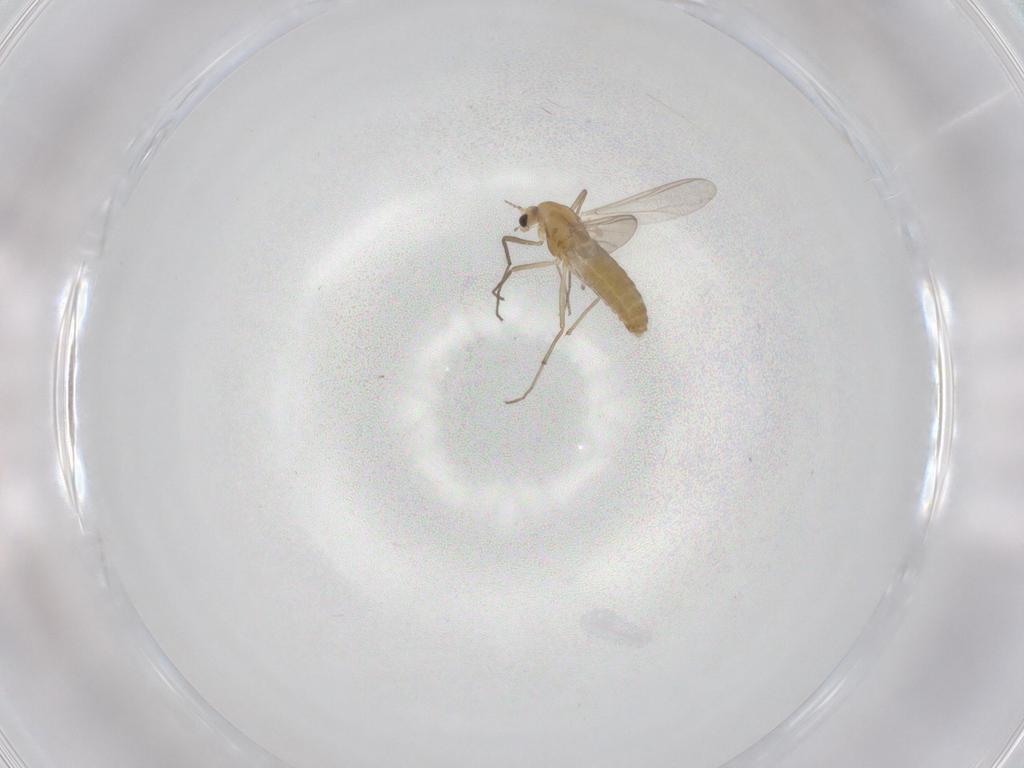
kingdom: Animalia
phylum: Arthropoda
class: Insecta
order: Diptera
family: Chironomidae
